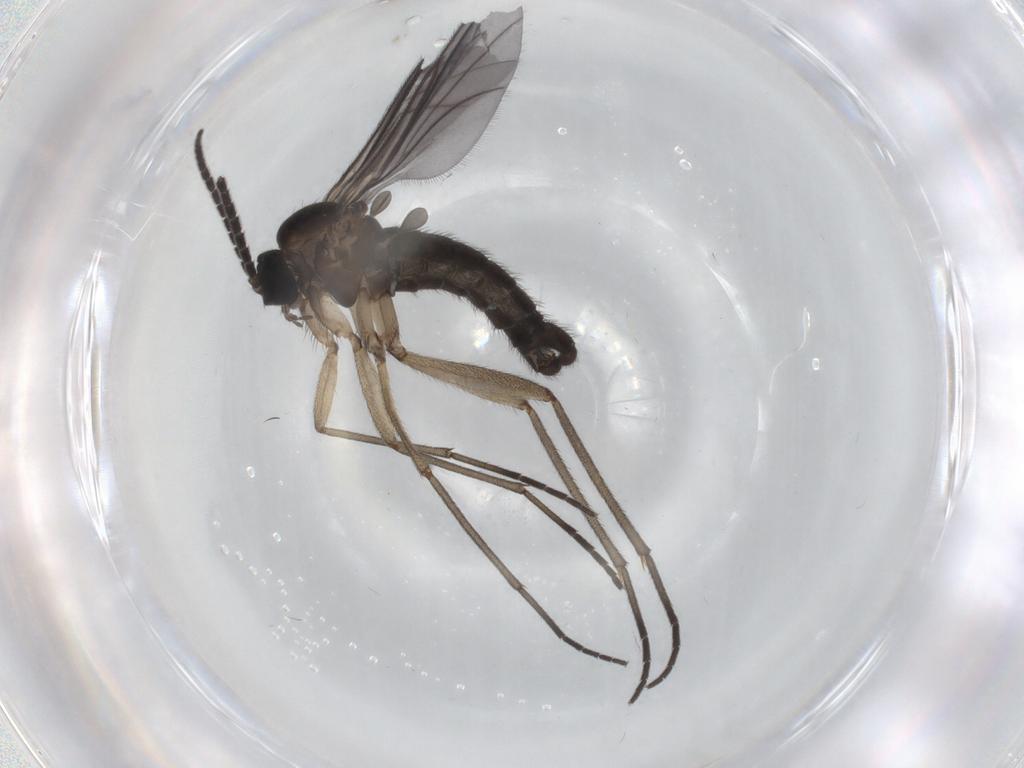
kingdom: Animalia
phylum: Arthropoda
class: Insecta
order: Diptera
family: Sciaridae
